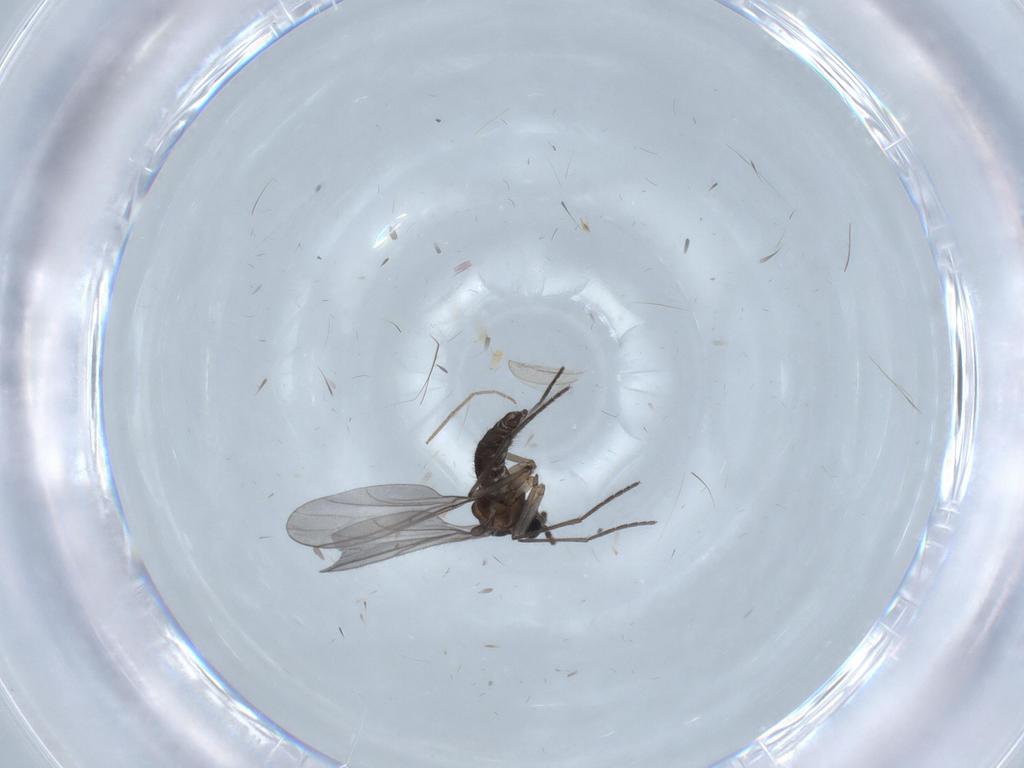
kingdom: Animalia
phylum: Arthropoda
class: Insecta
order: Diptera
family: Chironomidae
